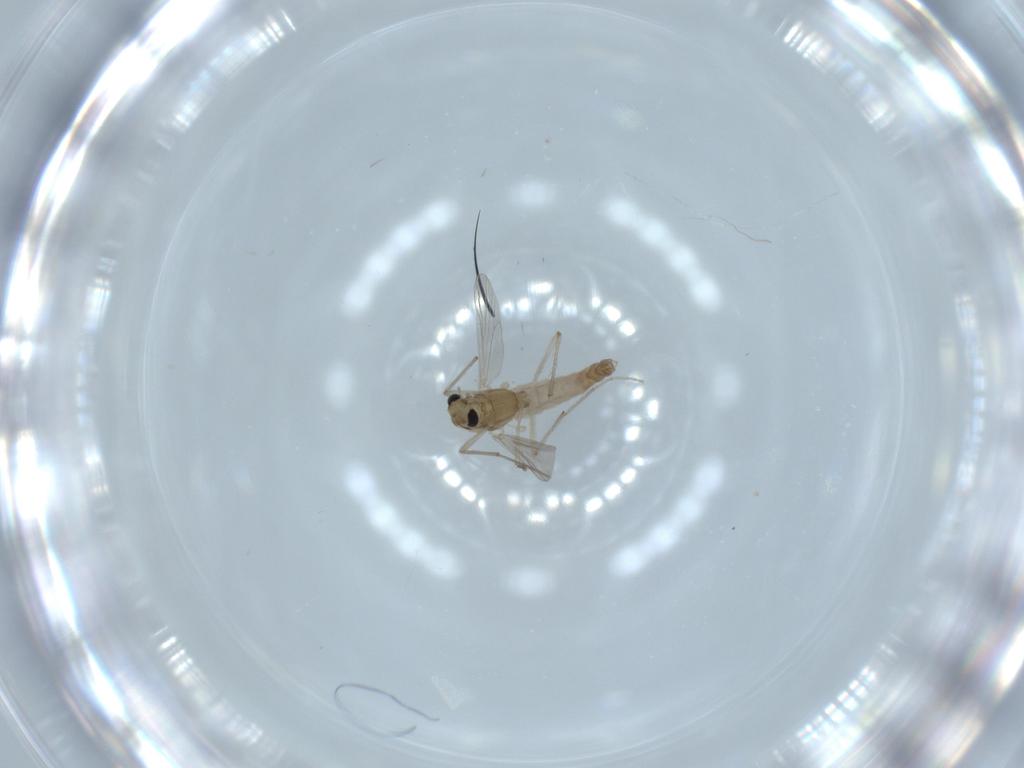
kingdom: Animalia
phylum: Arthropoda
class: Insecta
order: Diptera
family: Chironomidae
